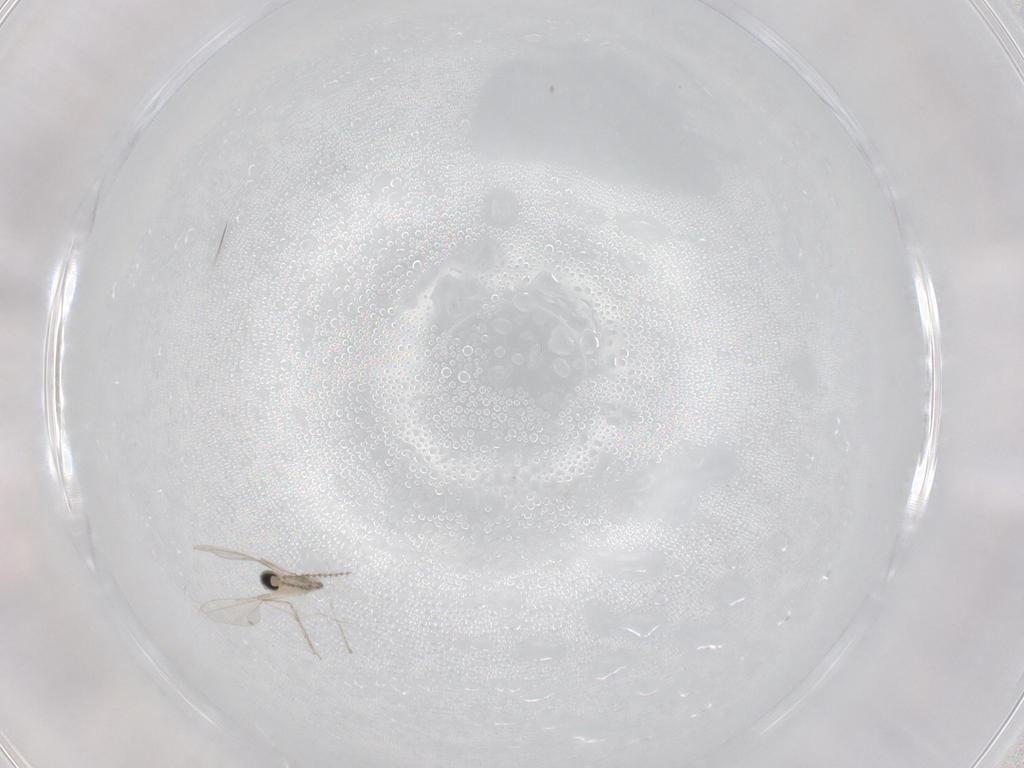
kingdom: Animalia
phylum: Arthropoda
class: Insecta
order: Diptera
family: Cecidomyiidae
